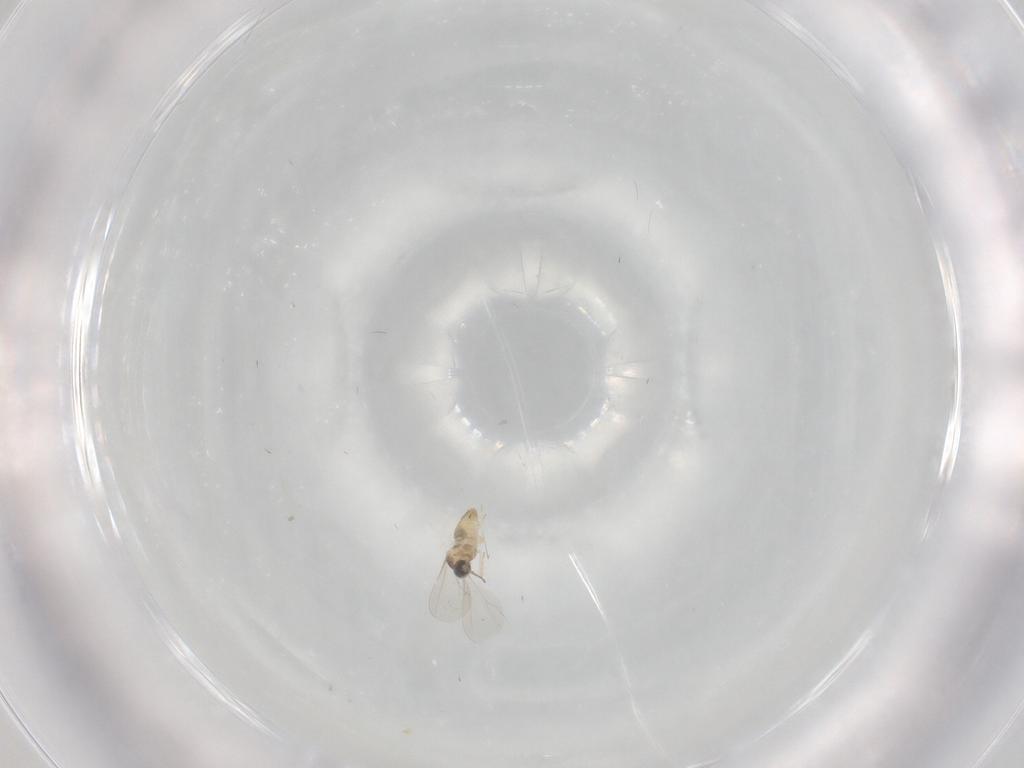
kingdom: Animalia
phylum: Arthropoda
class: Insecta
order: Diptera
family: Cecidomyiidae
